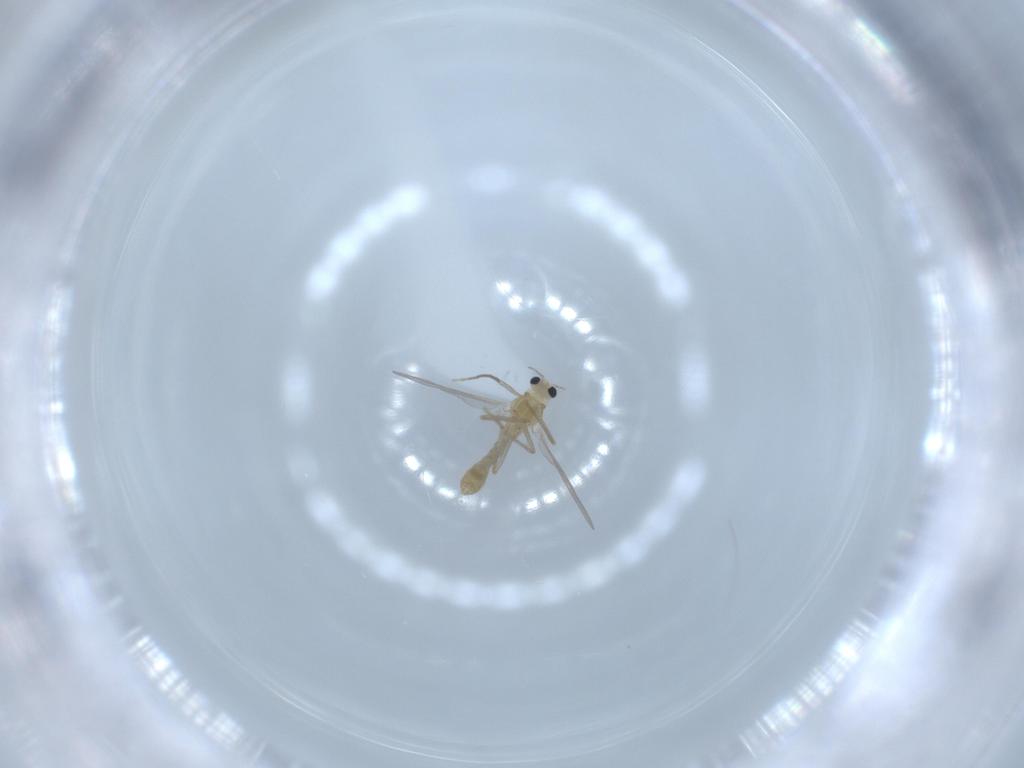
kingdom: Animalia
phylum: Arthropoda
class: Insecta
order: Diptera
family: Chironomidae
